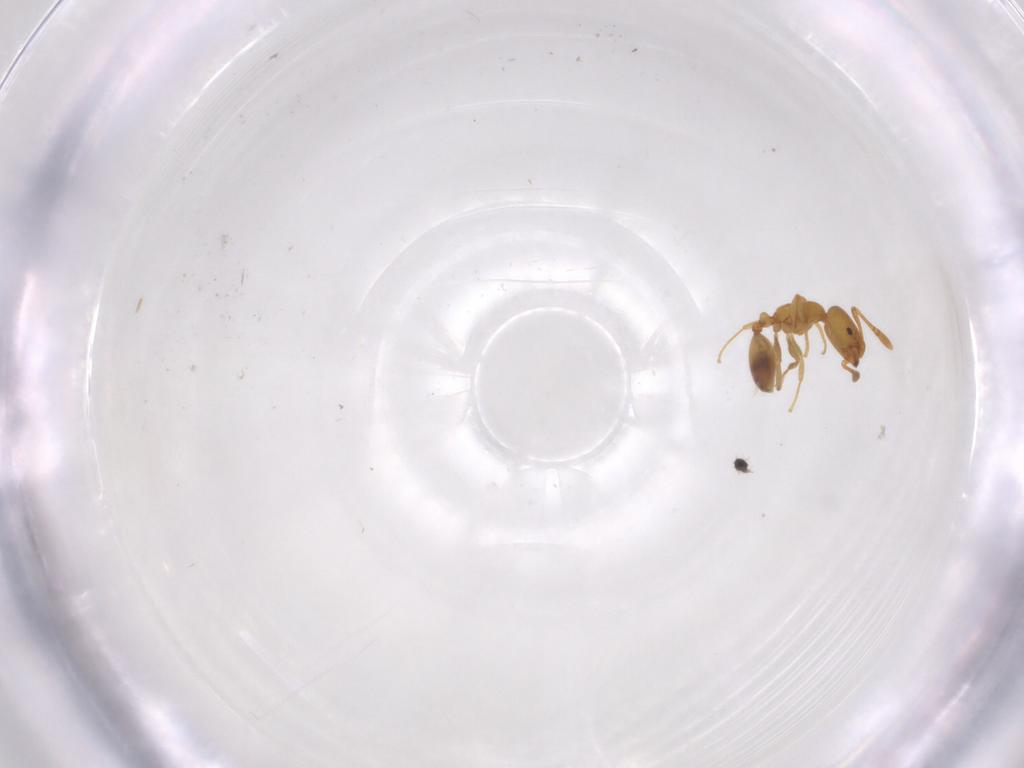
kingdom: Animalia
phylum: Arthropoda
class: Insecta
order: Hymenoptera
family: Formicidae
